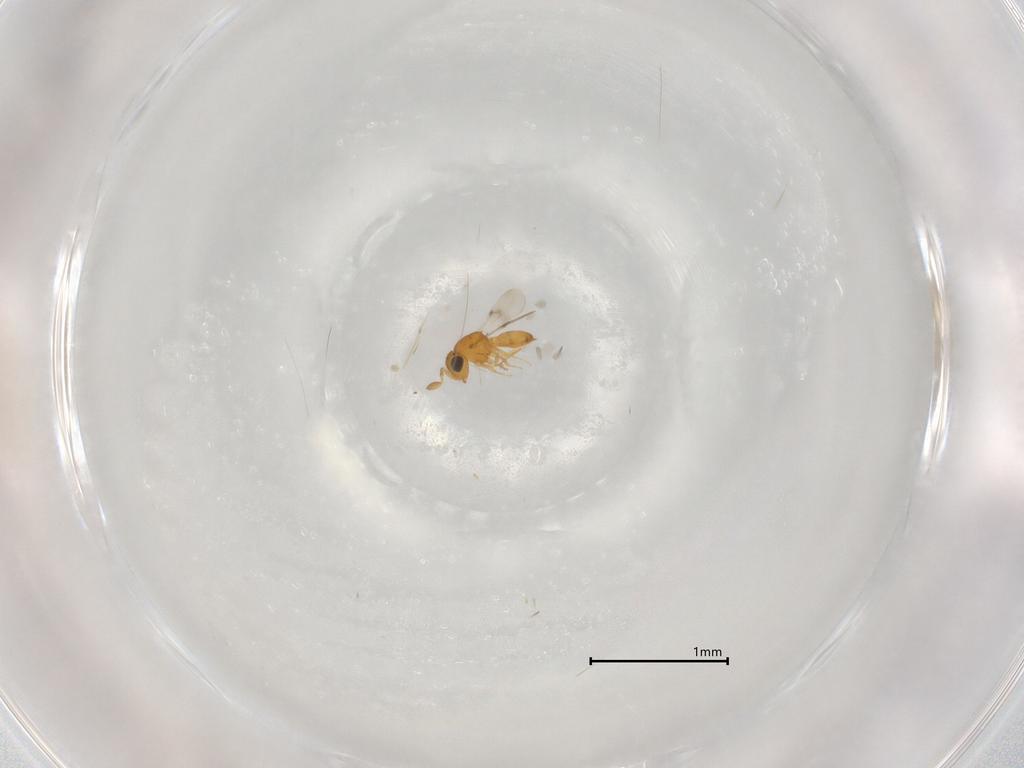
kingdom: Animalia
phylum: Arthropoda
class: Insecta
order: Hymenoptera
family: Scelionidae
